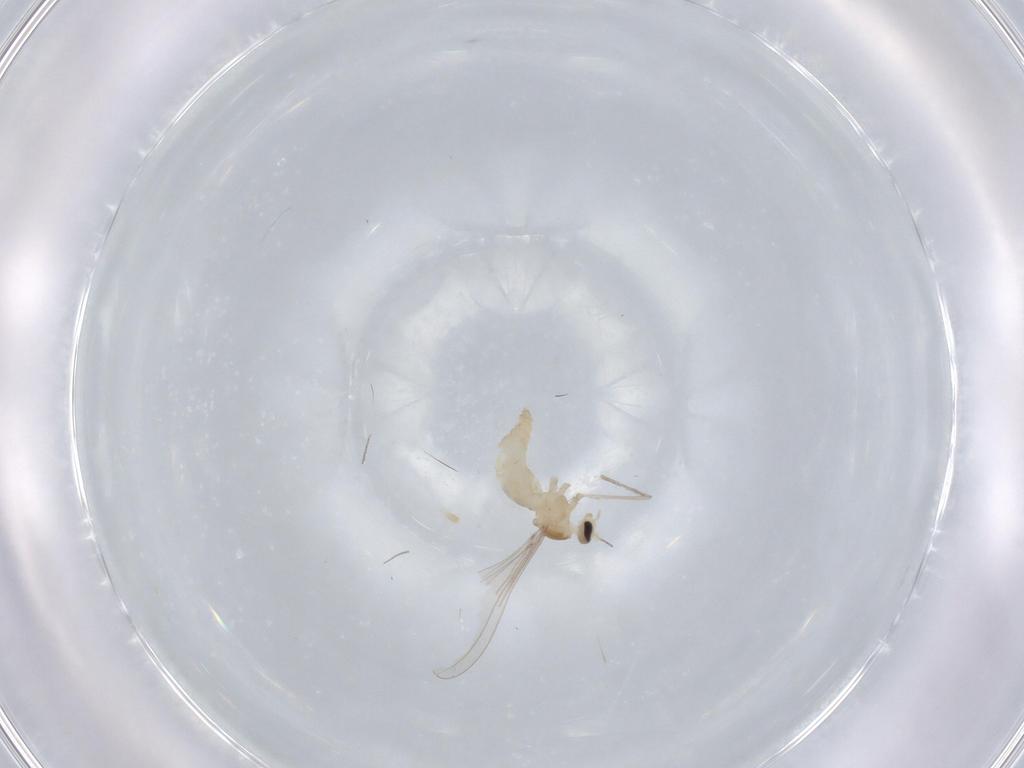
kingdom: Animalia
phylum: Arthropoda
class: Insecta
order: Diptera
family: Cecidomyiidae
